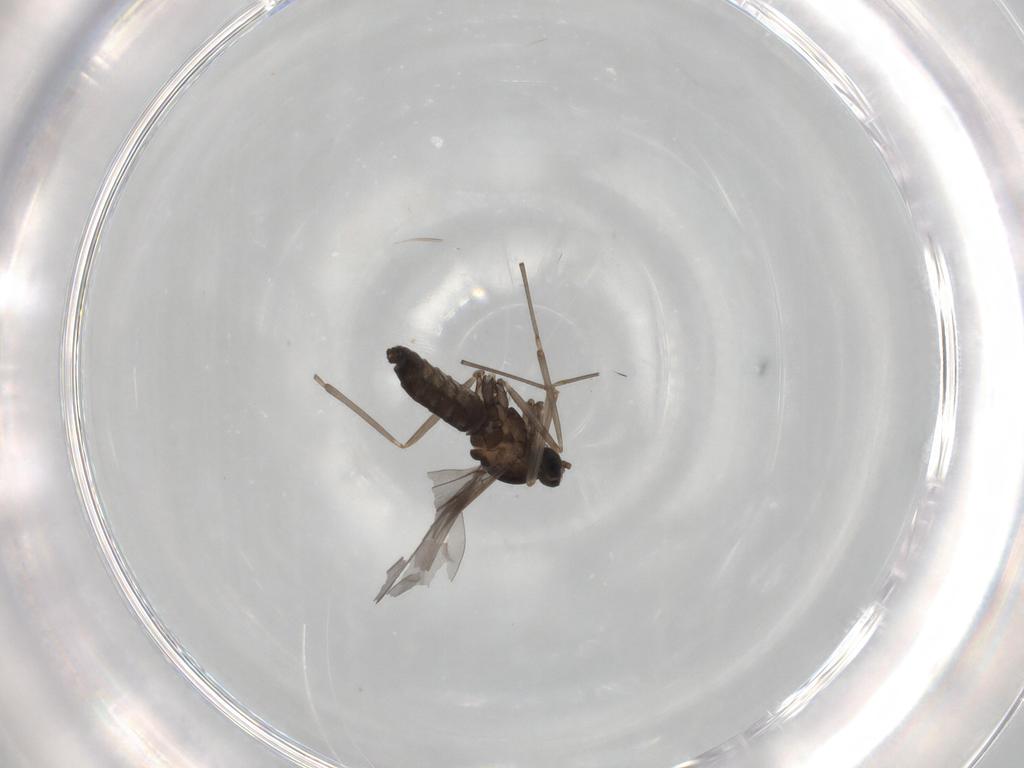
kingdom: Animalia
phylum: Arthropoda
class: Insecta
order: Diptera
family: Cecidomyiidae
